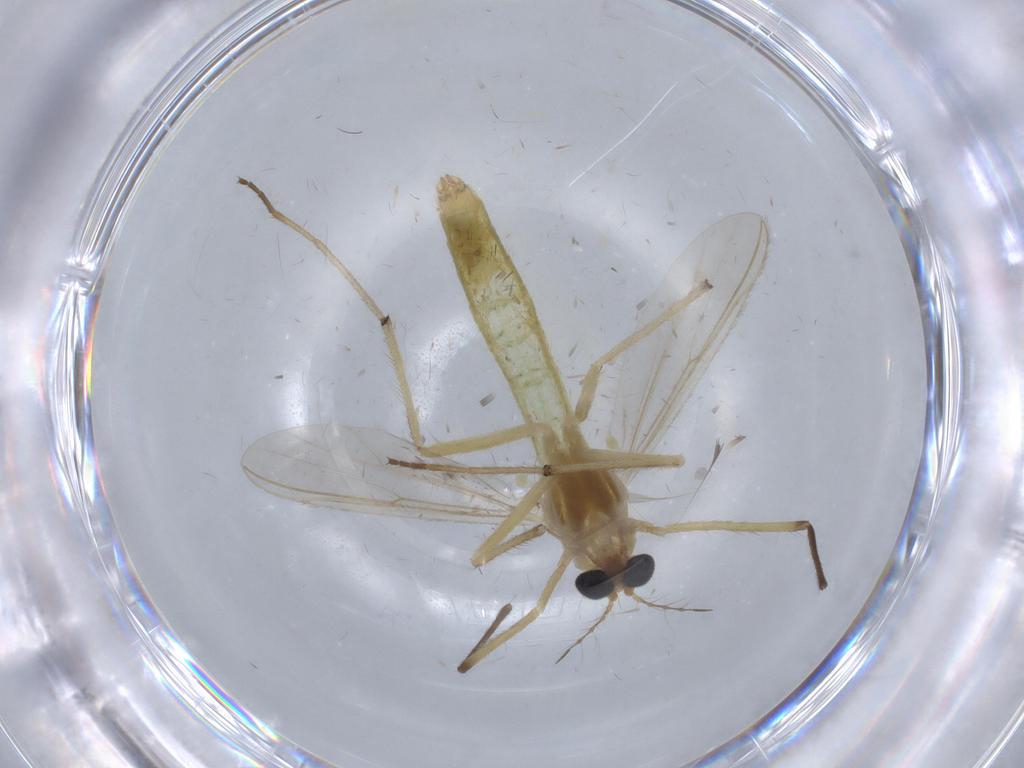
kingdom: Animalia
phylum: Arthropoda
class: Insecta
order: Diptera
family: Chironomidae
